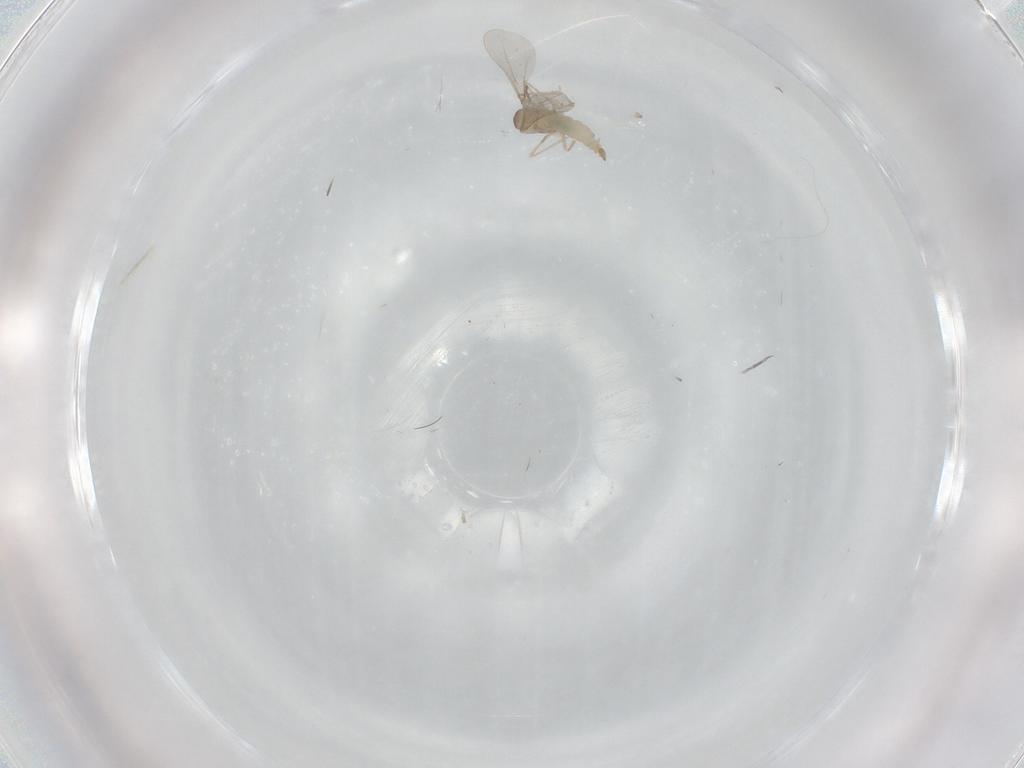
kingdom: Animalia
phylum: Arthropoda
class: Insecta
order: Diptera
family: Cecidomyiidae
